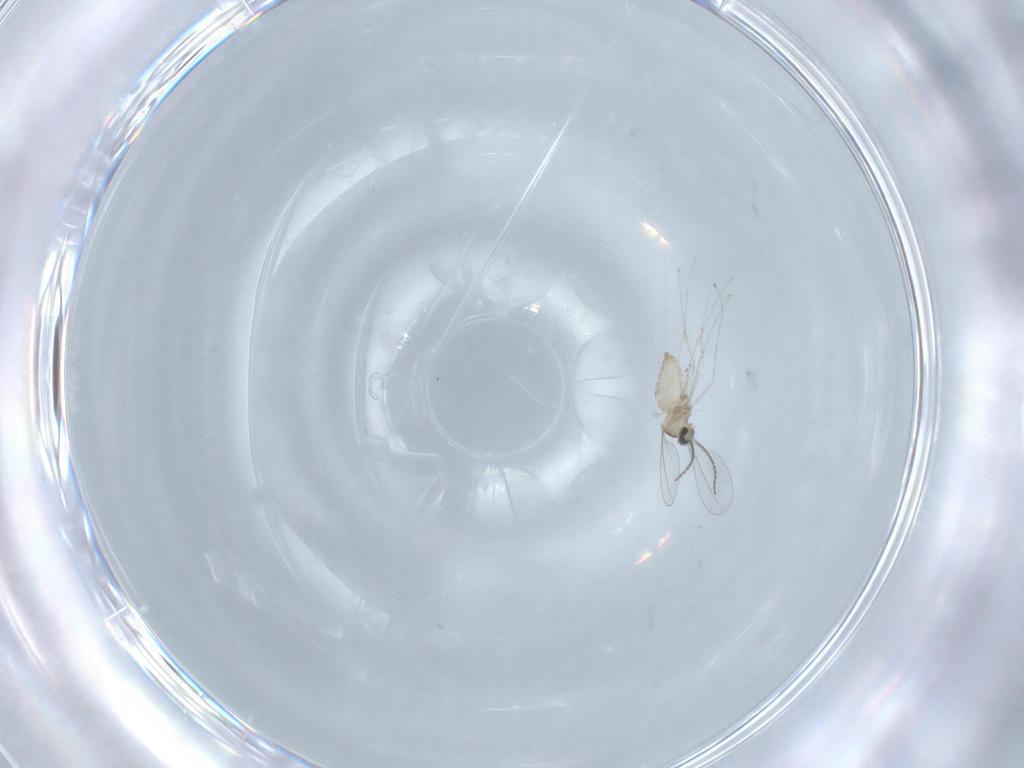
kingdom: Animalia
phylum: Arthropoda
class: Insecta
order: Diptera
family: Cecidomyiidae
